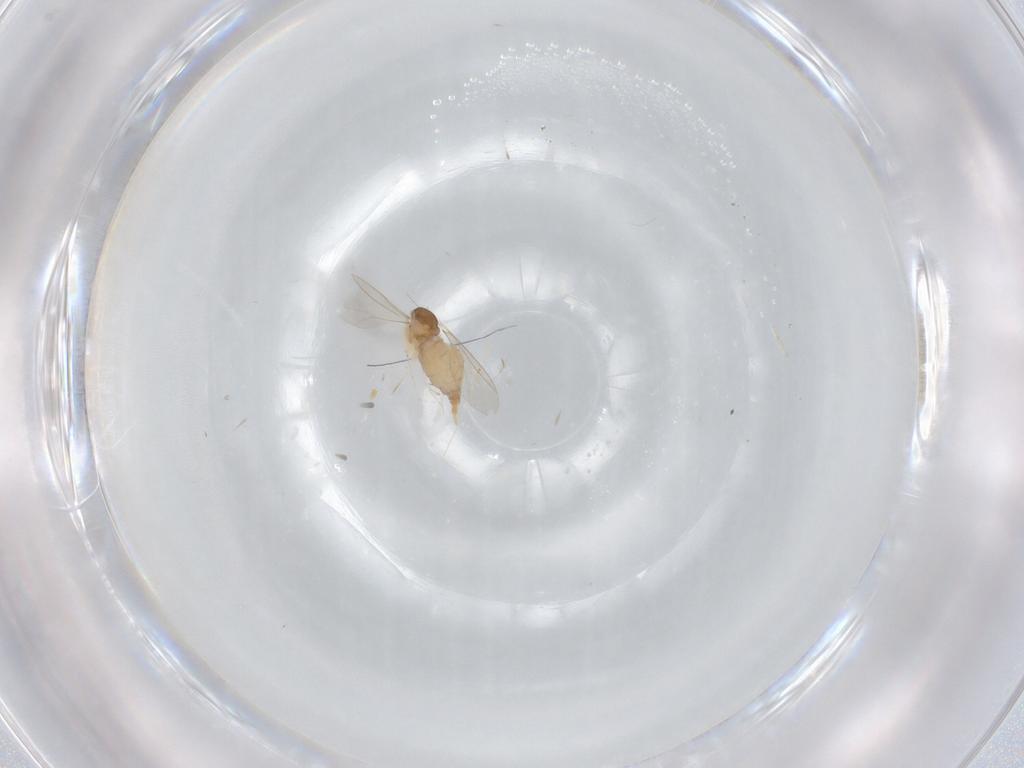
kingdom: Animalia
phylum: Arthropoda
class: Insecta
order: Diptera
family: Cecidomyiidae
